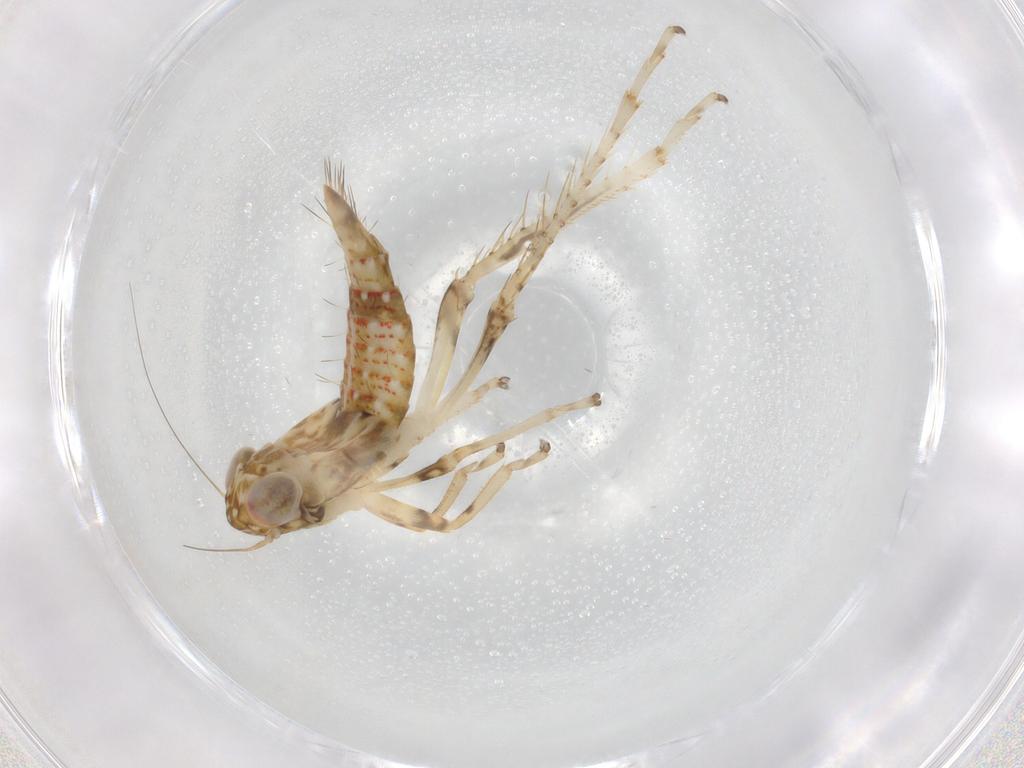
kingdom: Animalia
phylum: Arthropoda
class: Insecta
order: Hemiptera
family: Cicadellidae
